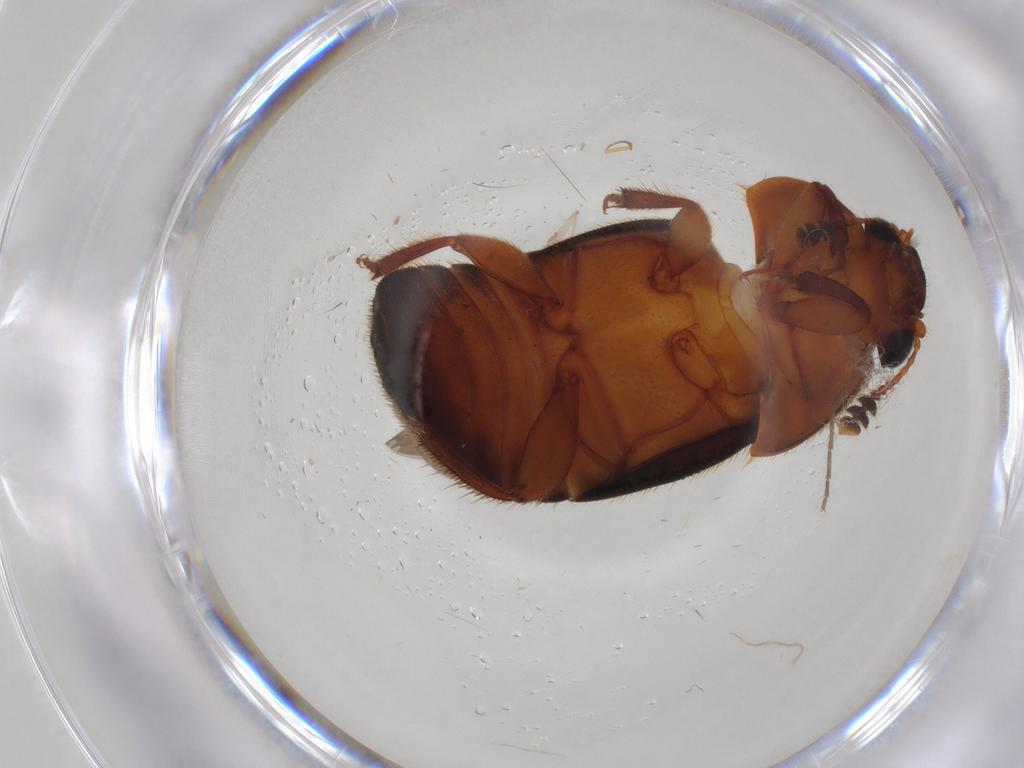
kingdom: Animalia
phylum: Arthropoda
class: Insecta
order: Coleoptera
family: Nitidulidae
